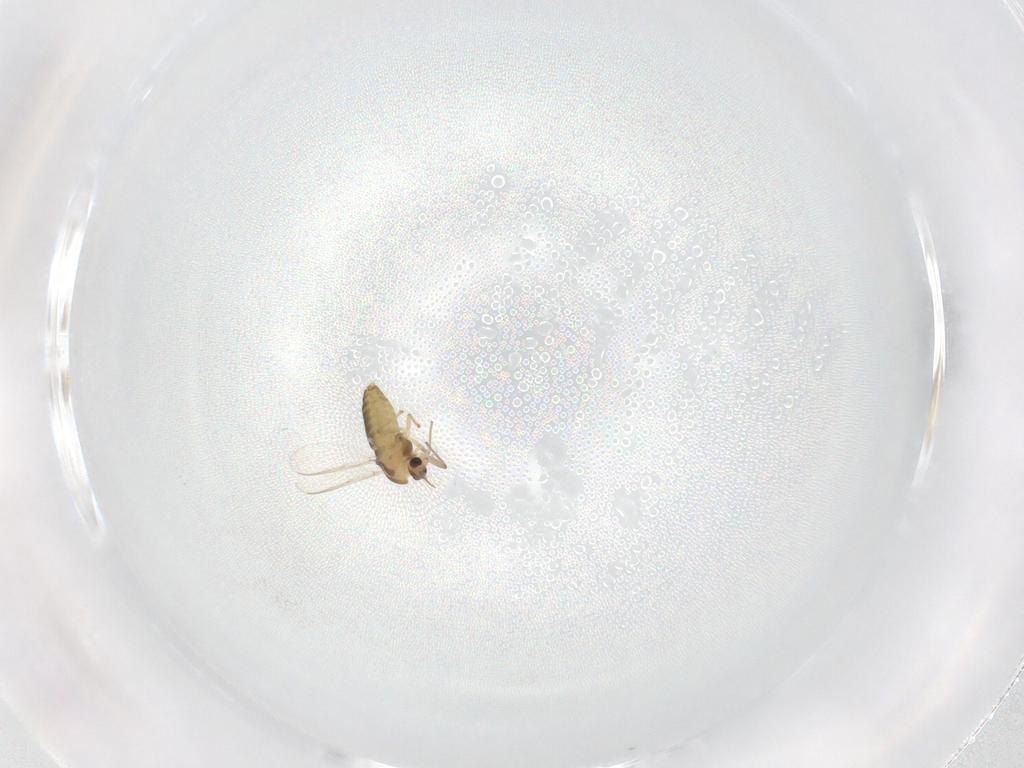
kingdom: Animalia
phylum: Arthropoda
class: Insecta
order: Diptera
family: Chironomidae
